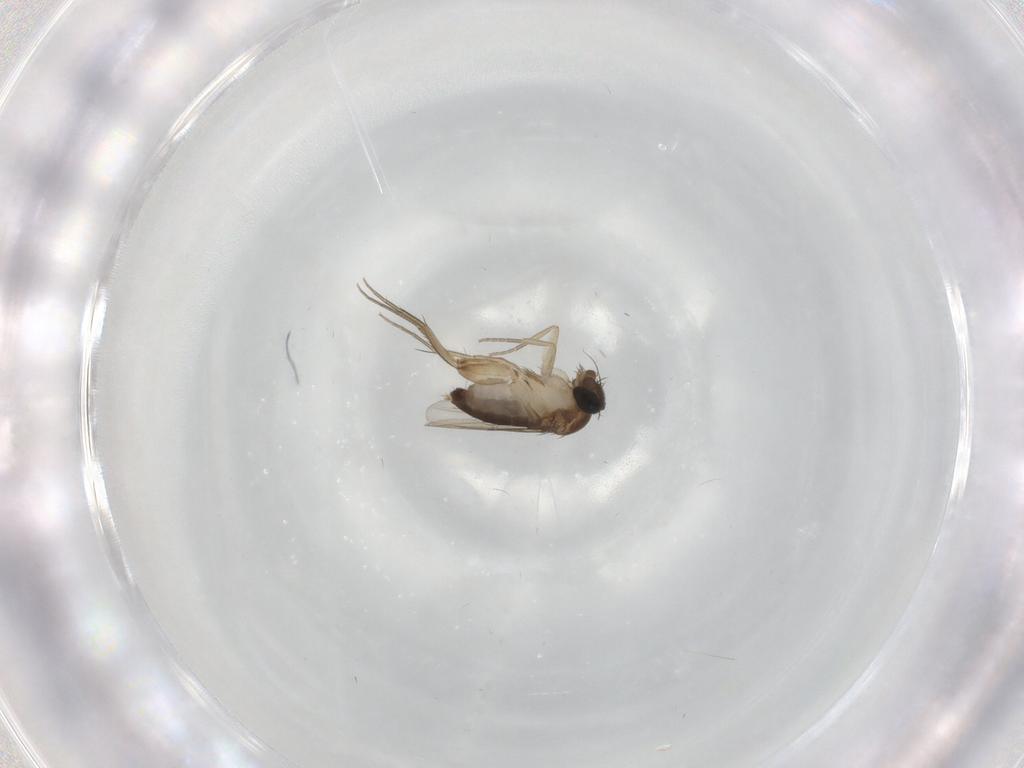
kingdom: Animalia
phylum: Arthropoda
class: Insecta
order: Diptera
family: Phoridae
